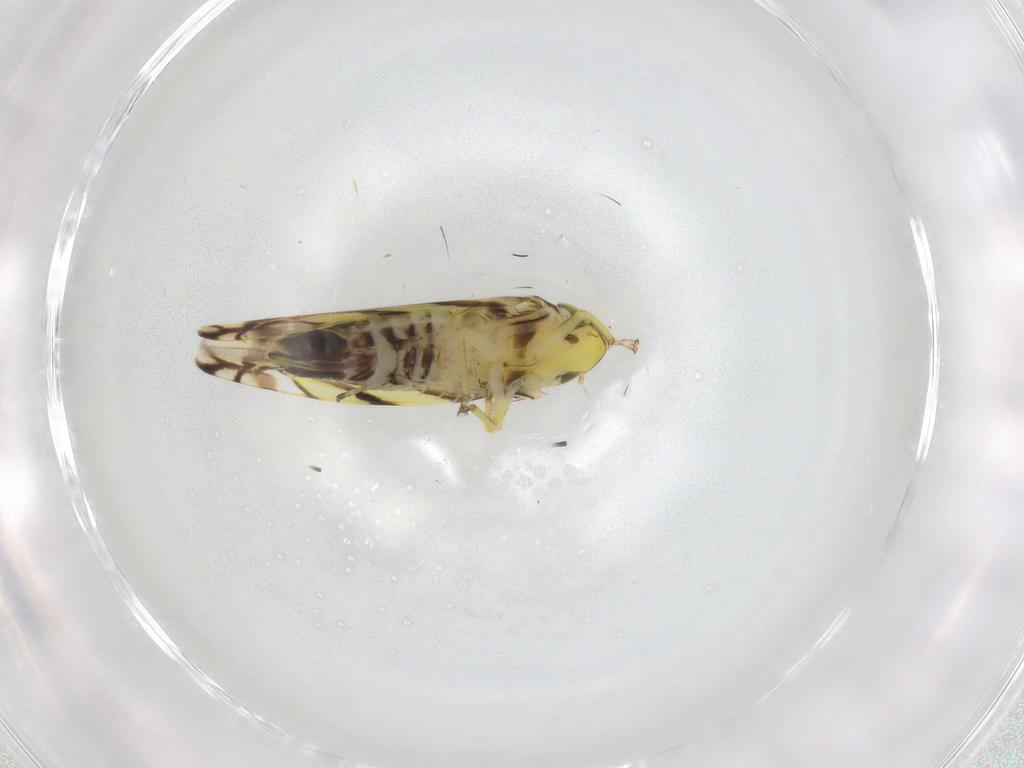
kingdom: Animalia
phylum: Arthropoda
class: Insecta
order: Hemiptera
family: Cicadellidae
